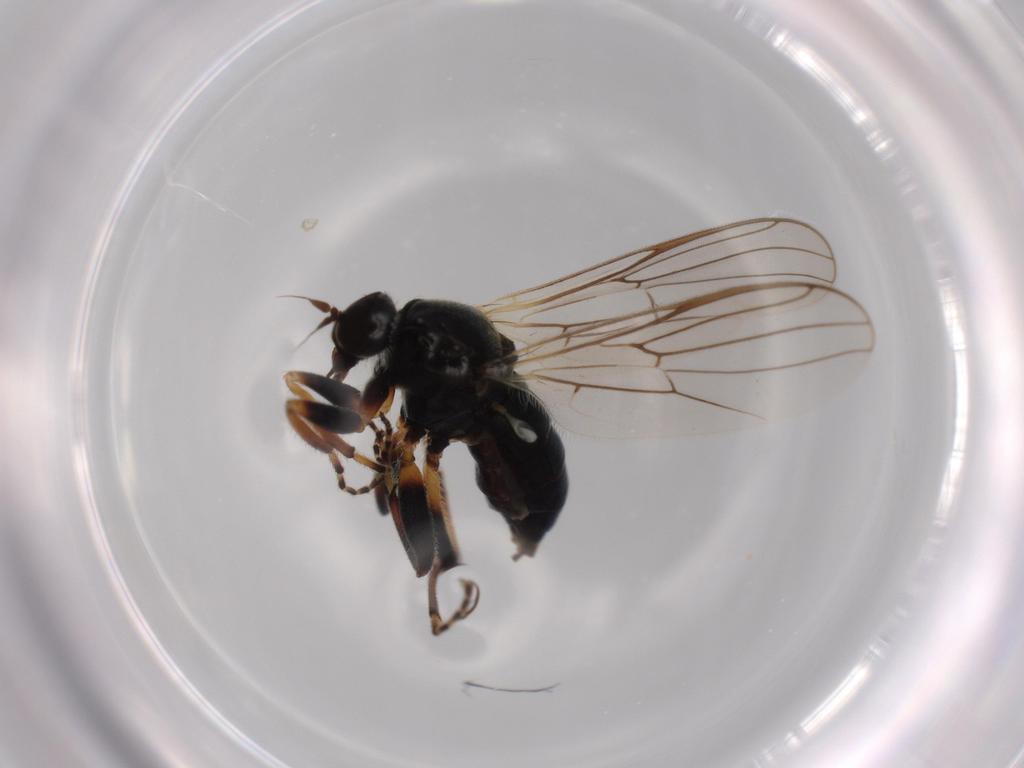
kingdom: Animalia
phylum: Arthropoda
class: Insecta
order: Diptera
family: Hybotidae
